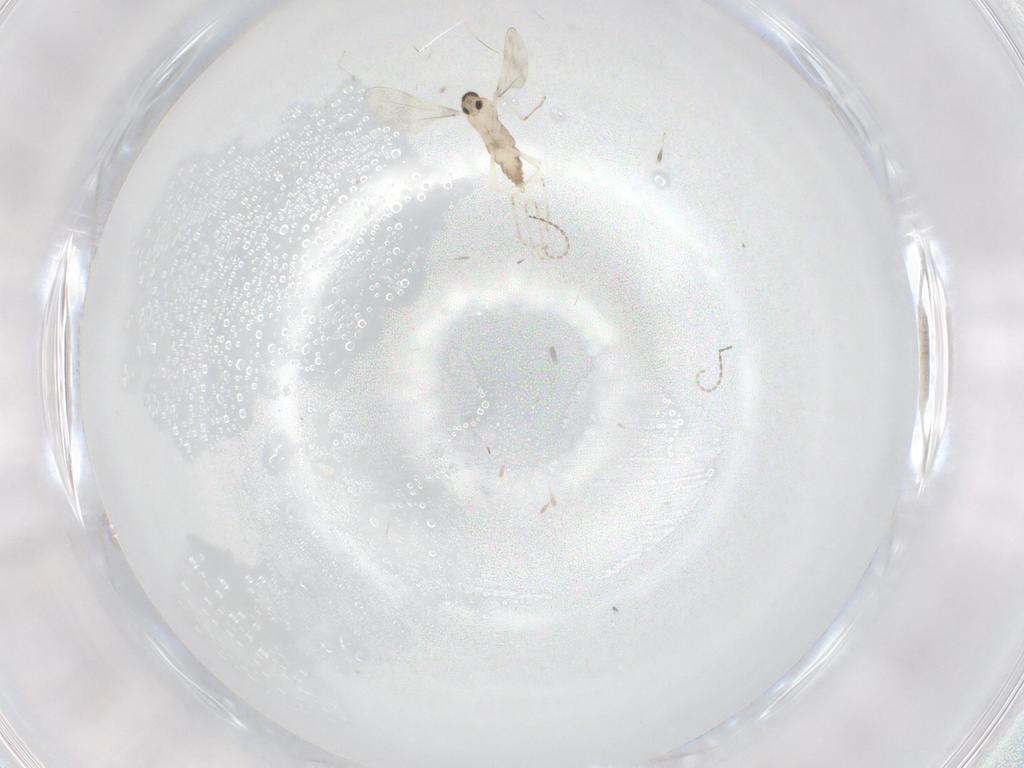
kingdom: Animalia
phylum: Arthropoda
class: Insecta
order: Diptera
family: Cecidomyiidae
